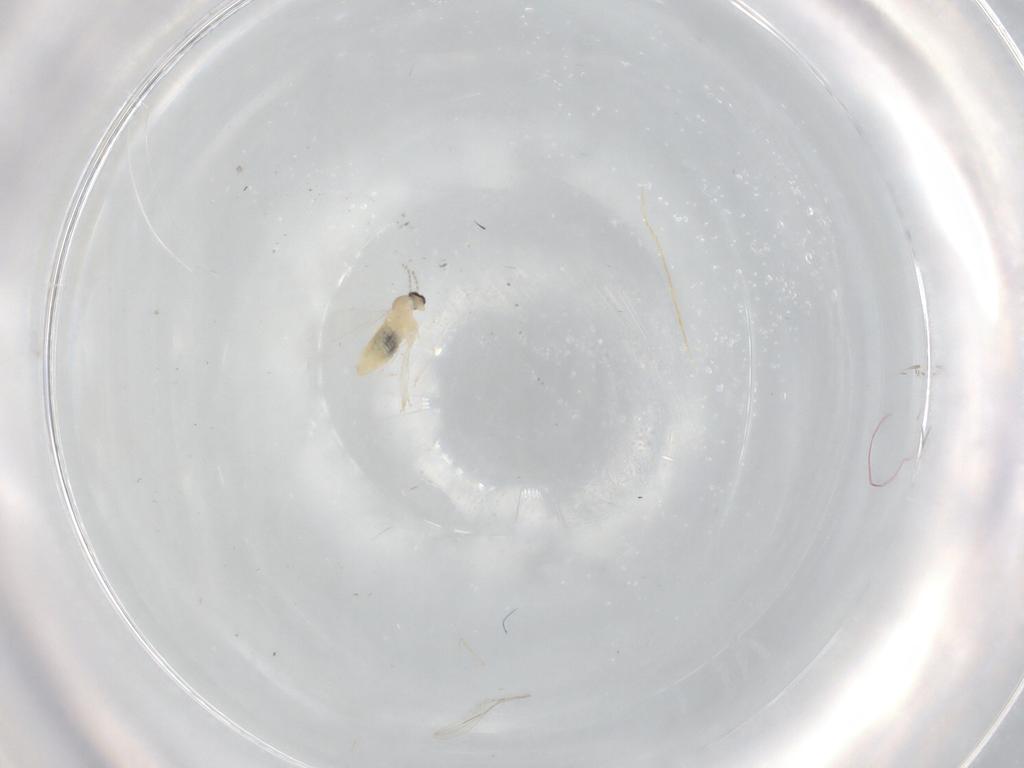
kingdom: Animalia
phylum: Arthropoda
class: Insecta
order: Diptera
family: Cecidomyiidae
